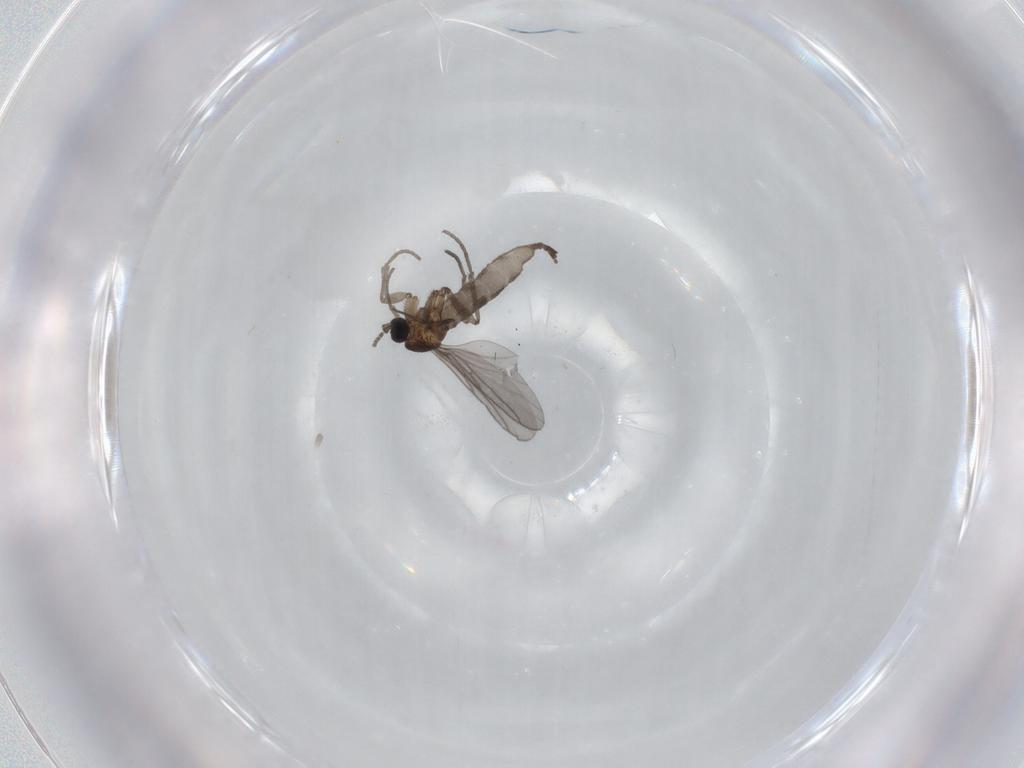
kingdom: Animalia
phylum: Arthropoda
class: Insecta
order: Diptera
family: Sciaridae
